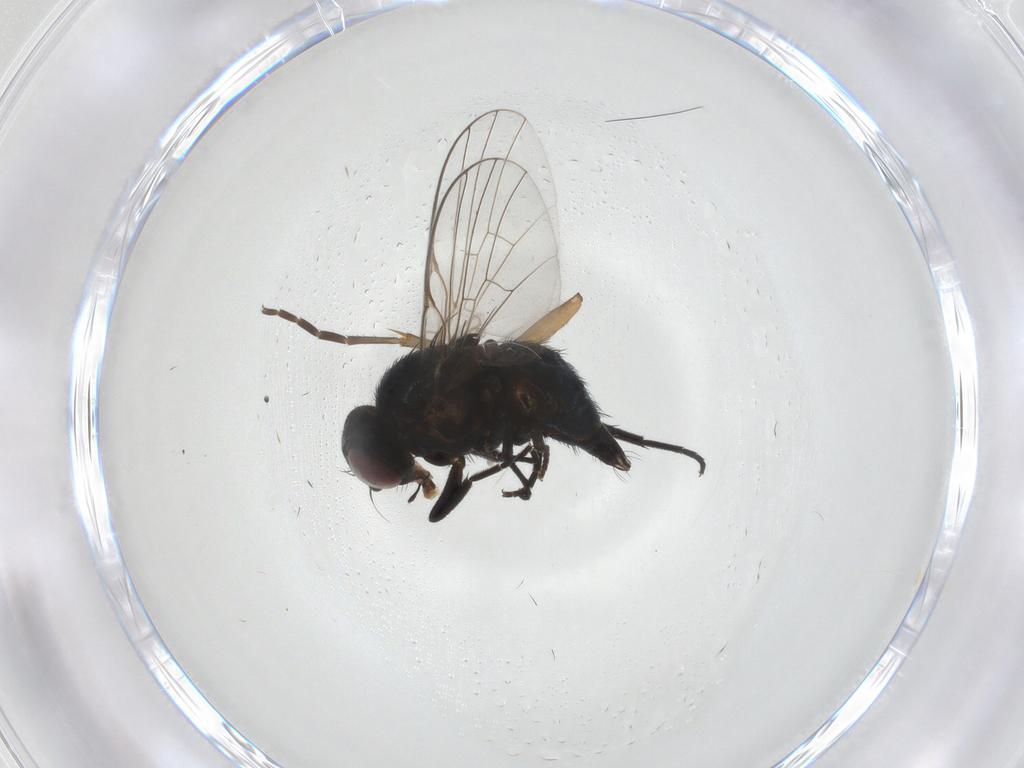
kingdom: Animalia
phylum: Arthropoda
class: Insecta
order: Diptera
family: Agromyzidae
